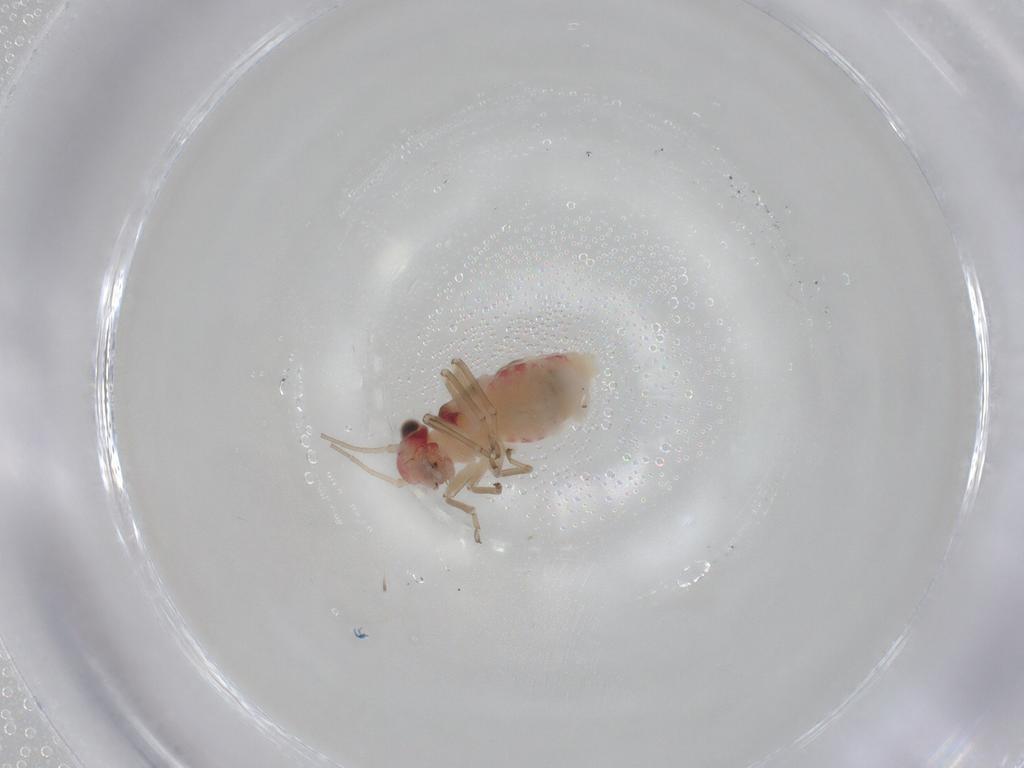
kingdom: Animalia
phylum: Arthropoda
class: Insecta
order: Psocodea
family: Caeciliusidae
